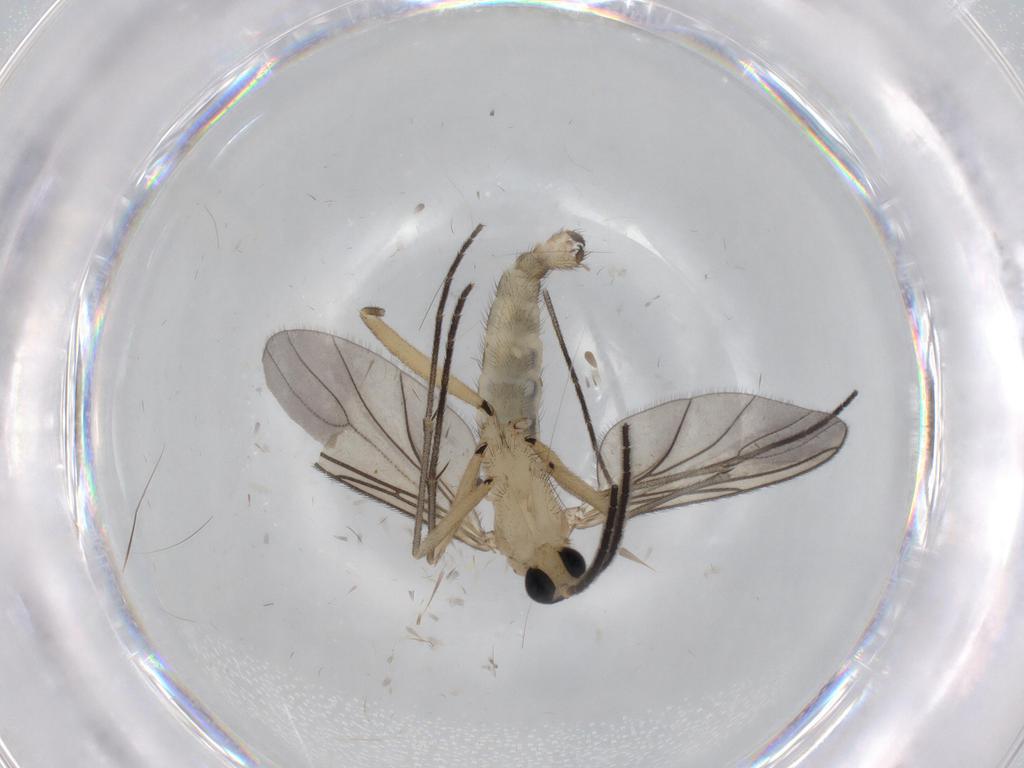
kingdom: Animalia
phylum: Arthropoda
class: Insecta
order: Diptera
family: Sciaridae
